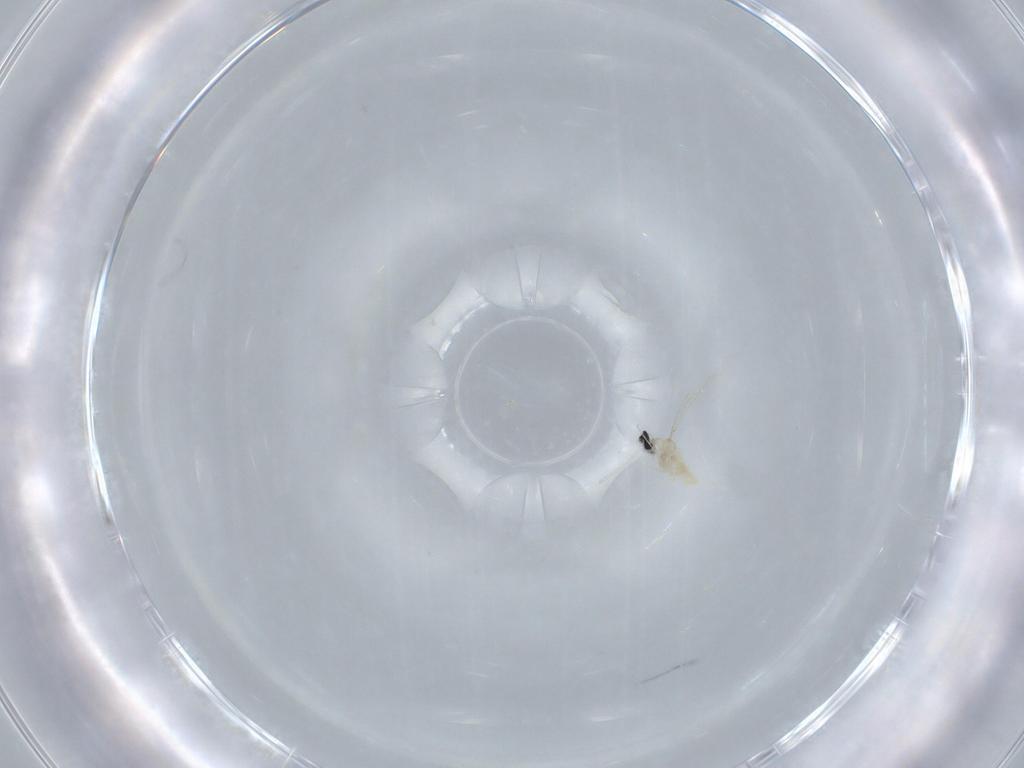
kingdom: Animalia
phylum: Arthropoda
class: Insecta
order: Diptera
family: Cecidomyiidae
